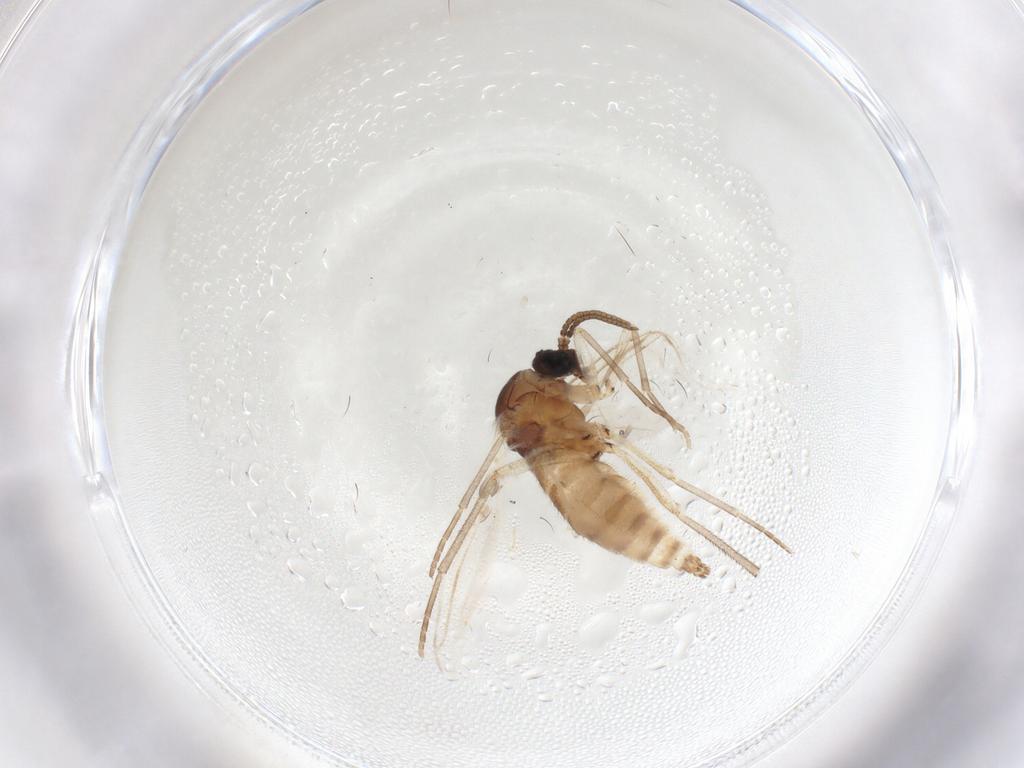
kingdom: Animalia
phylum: Arthropoda
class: Insecta
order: Diptera
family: Sciaridae
